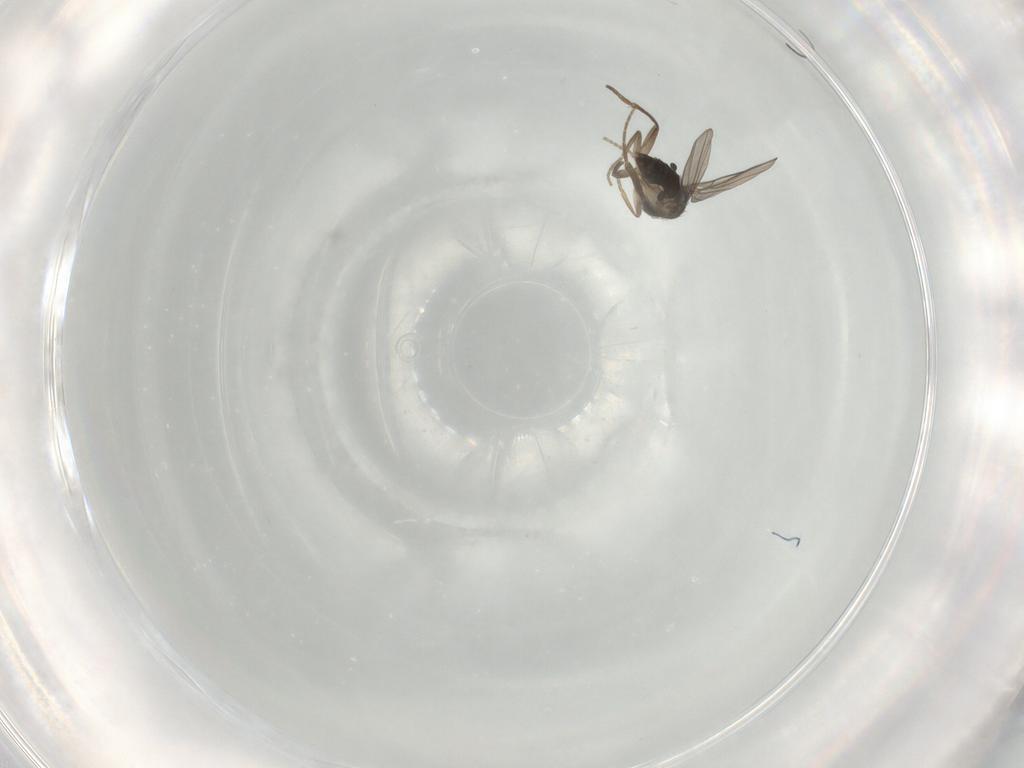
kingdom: Animalia
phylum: Arthropoda
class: Insecta
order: Diptera
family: Phoridae
